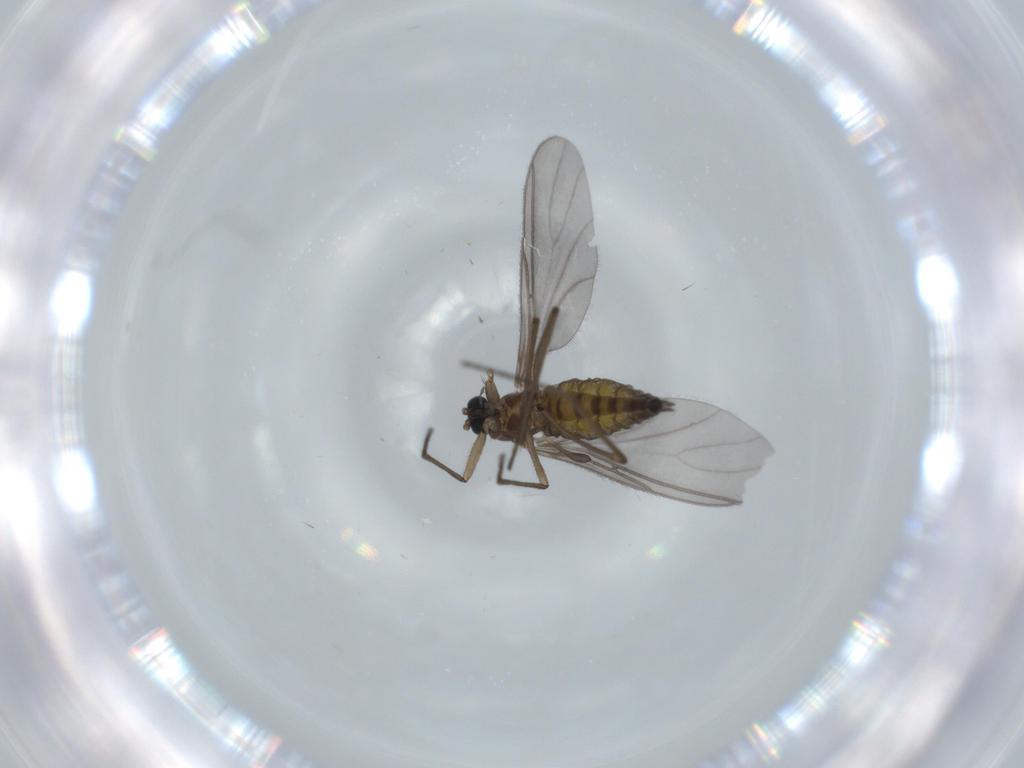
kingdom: Animalia
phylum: Arthropoda
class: Insecta
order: Diptera
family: Sciaridae
